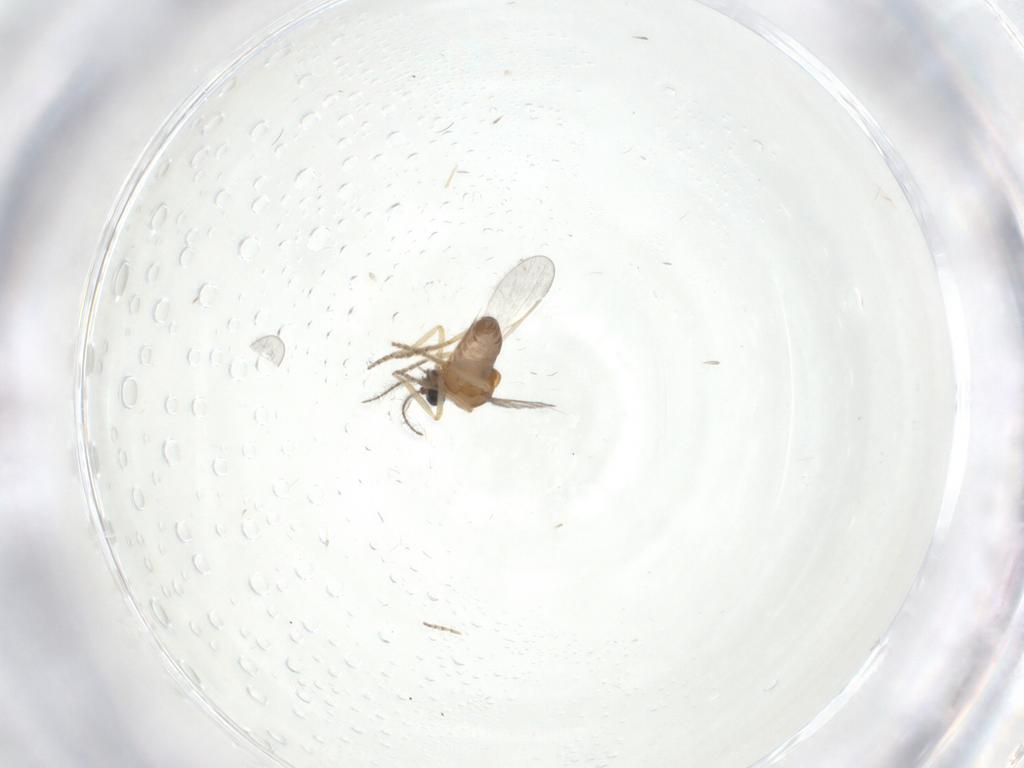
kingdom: Animalia
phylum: Arthropoda
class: Insecta
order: Diptera
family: Ceratopogonidae
